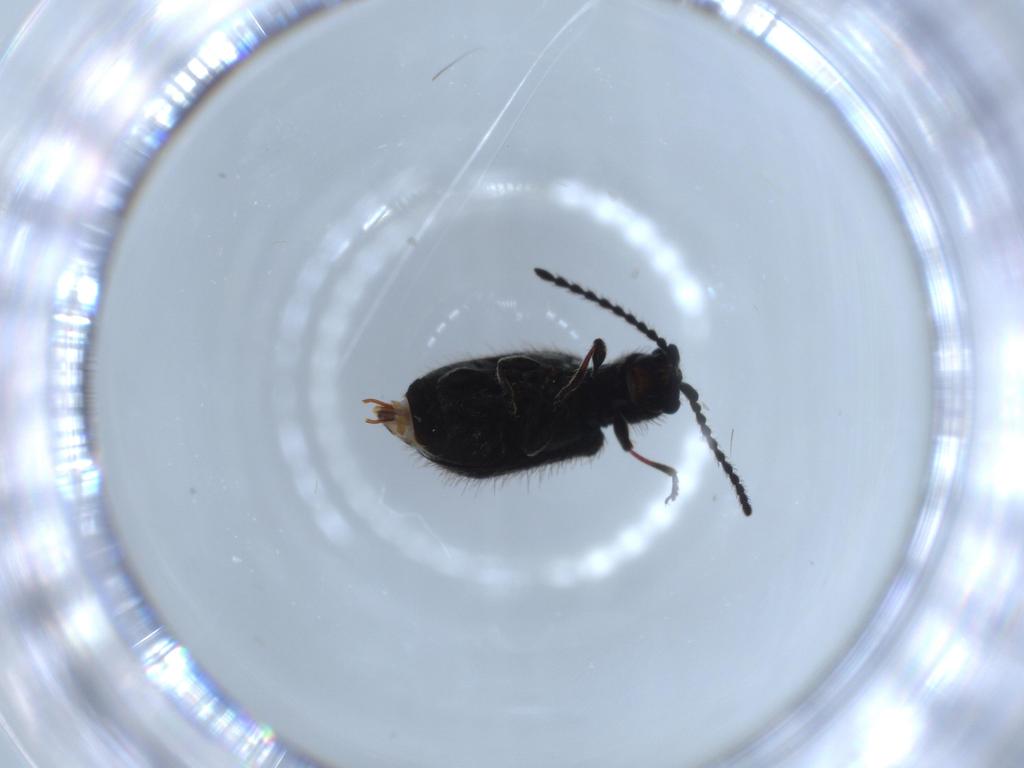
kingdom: Animalia
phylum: Arthropoda
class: Insecta
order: Coleoptera
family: Ptinidae
